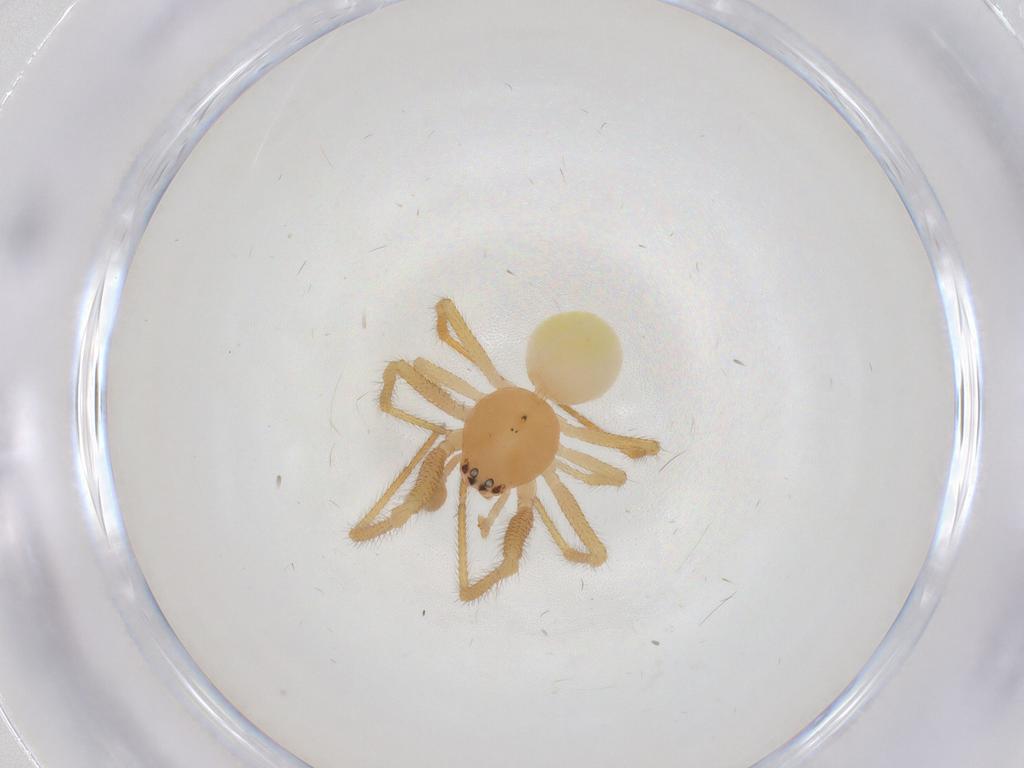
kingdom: Animalia
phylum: Arthropoda
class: Arachnida
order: Araneae
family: Theridiidae
